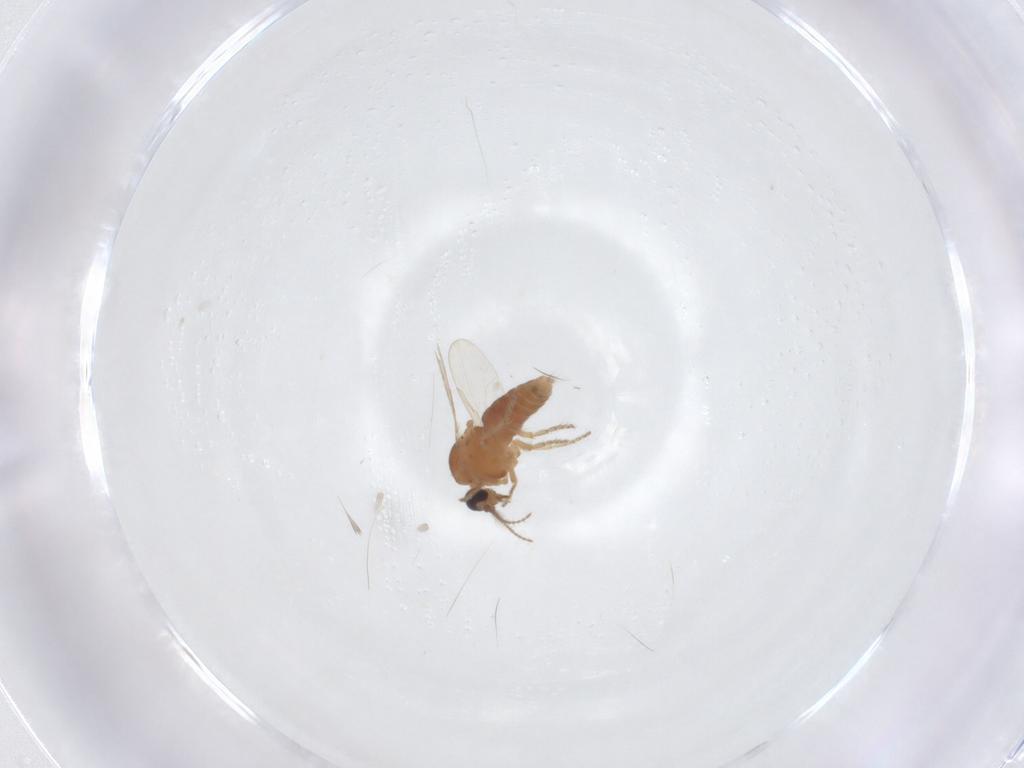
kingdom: Animalia
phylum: Arthropoda
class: Insecta
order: Diptera
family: Ceratopogonidae
